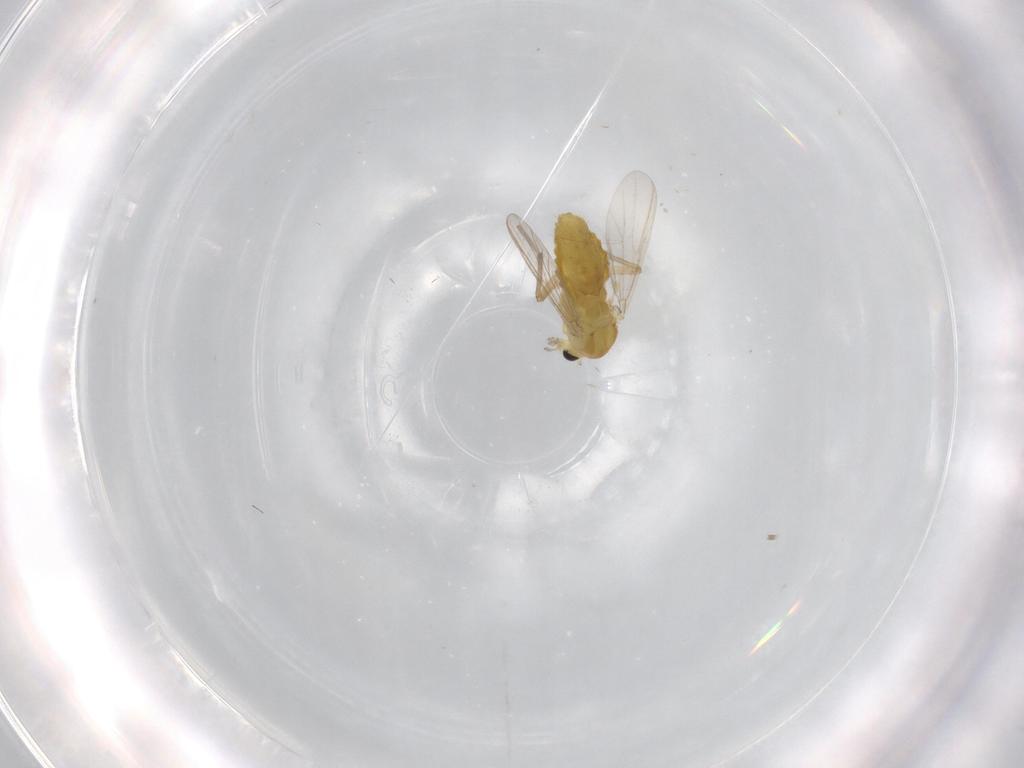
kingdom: Animalia
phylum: Arthropoda
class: Insecta
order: Diptera
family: Chironomidae
